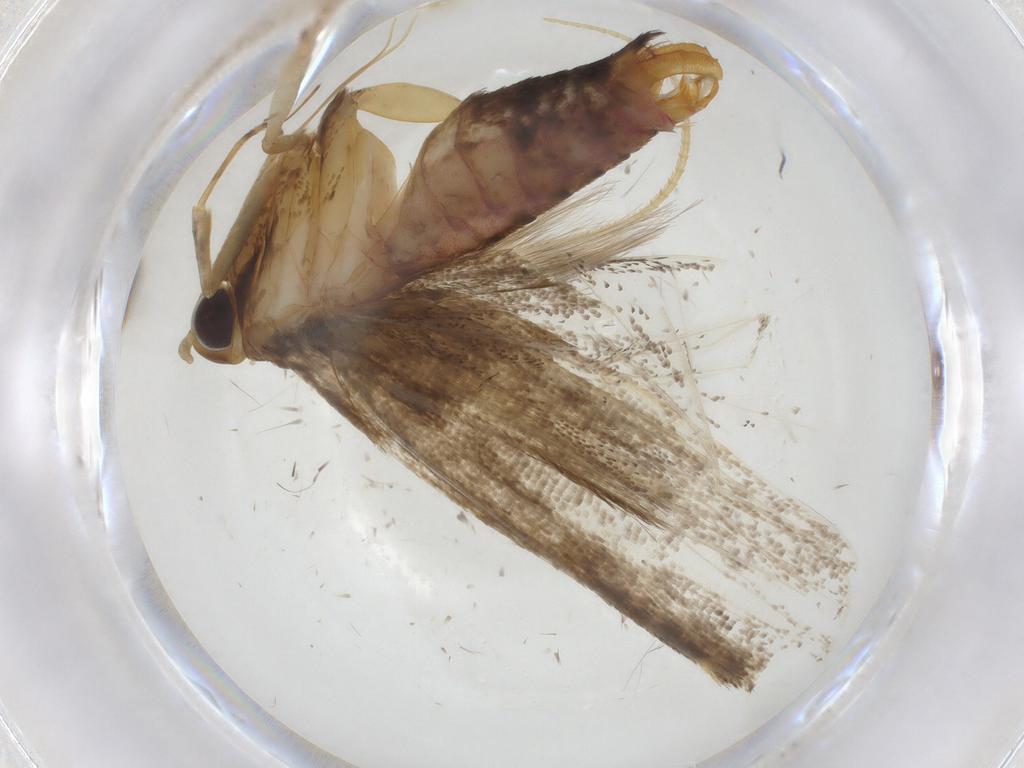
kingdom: Animalia
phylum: Arthropoda
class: Insecta
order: Lepidoptera
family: Lecithoceridae
